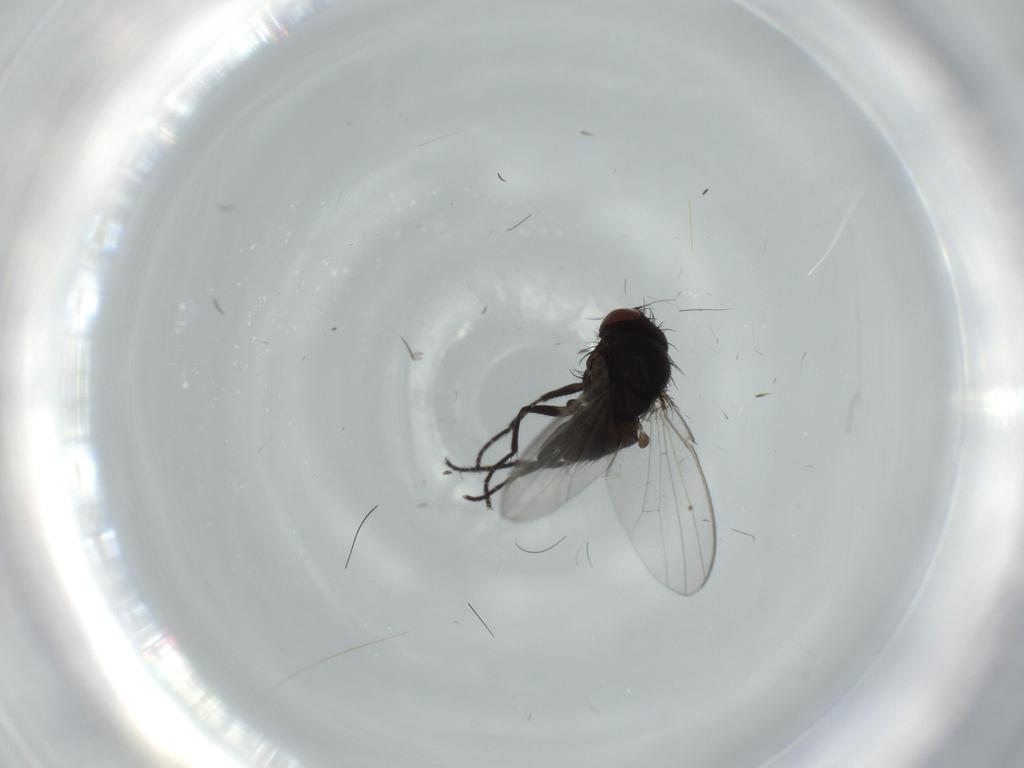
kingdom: Animalia
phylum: Arthropoda
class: Insecta
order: Diptera
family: Milichiidae
